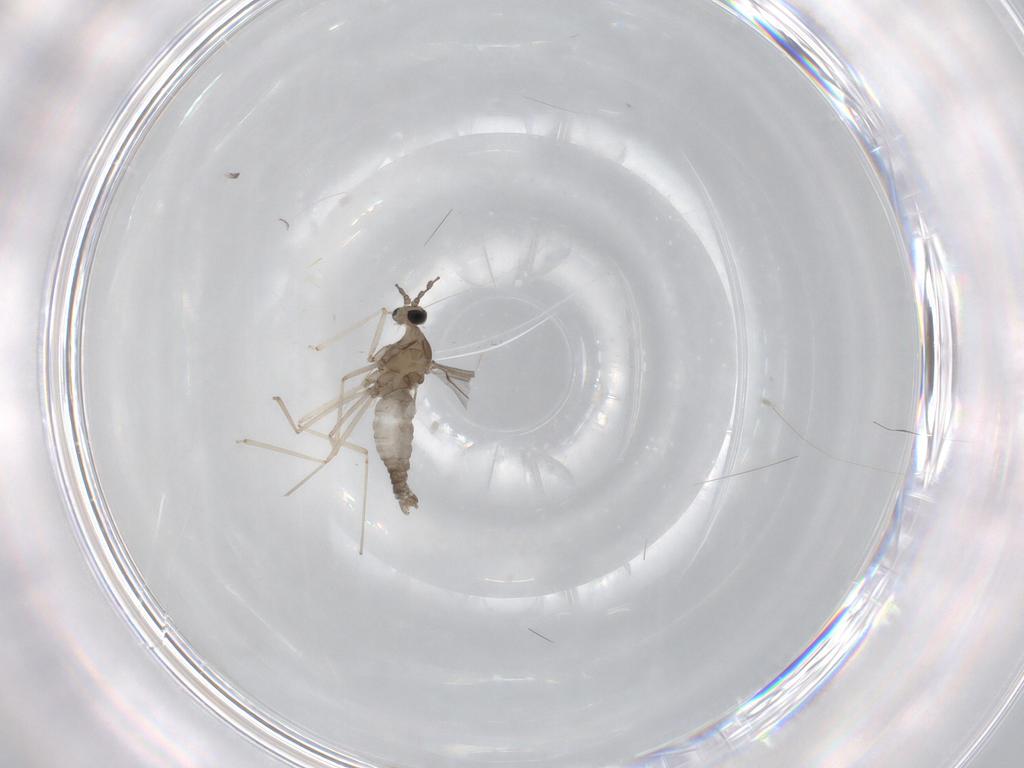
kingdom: Animalia
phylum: Arthropoda
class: Insecta
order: Diptera
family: Cecidomyiidae
